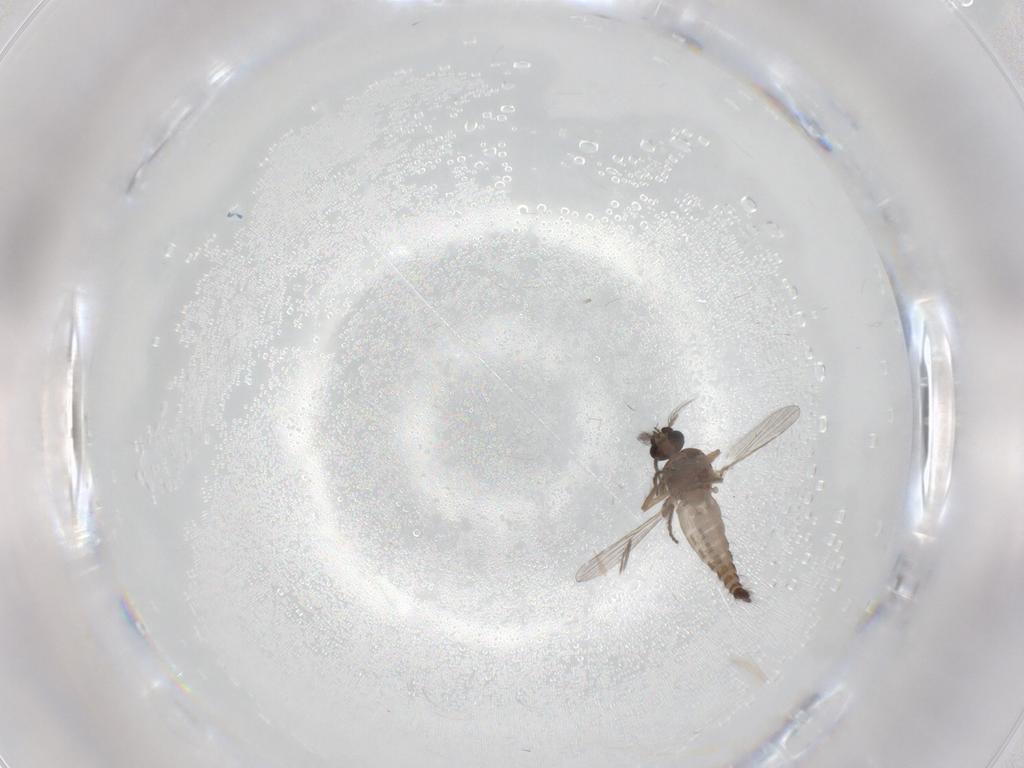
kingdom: Animalia
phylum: Arthropoda
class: Insecta
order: Diptera
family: Ceratopogonidae
